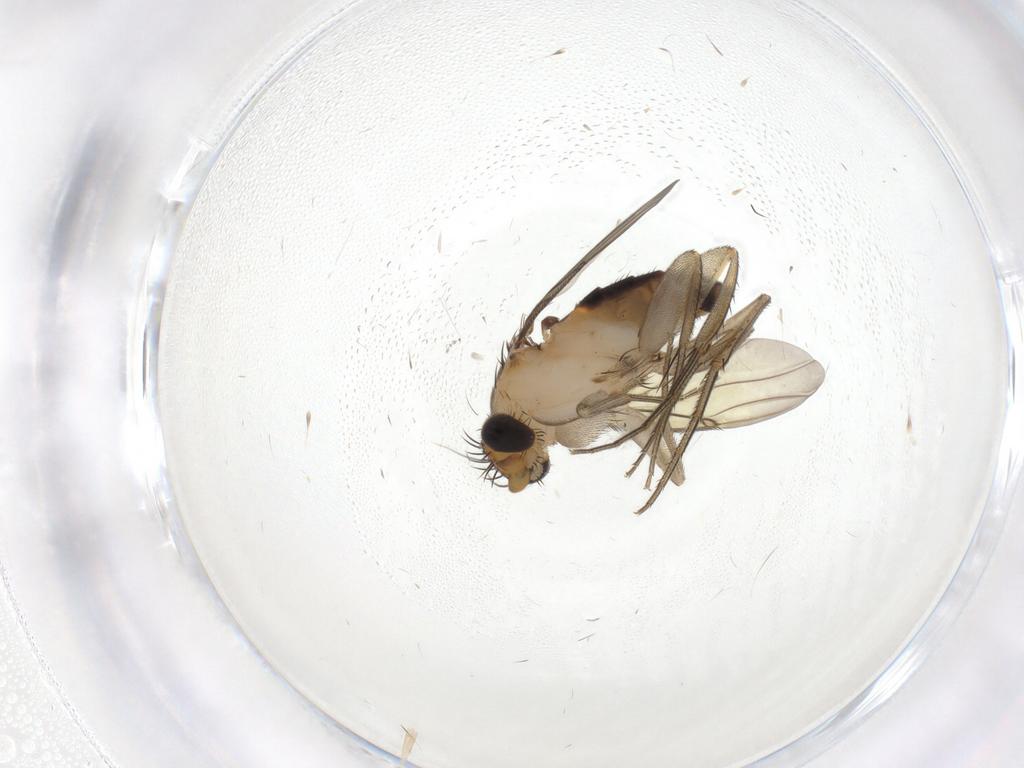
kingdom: Animalia
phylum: Arthropoda
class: Insecta
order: Diptera
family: Phoridae
